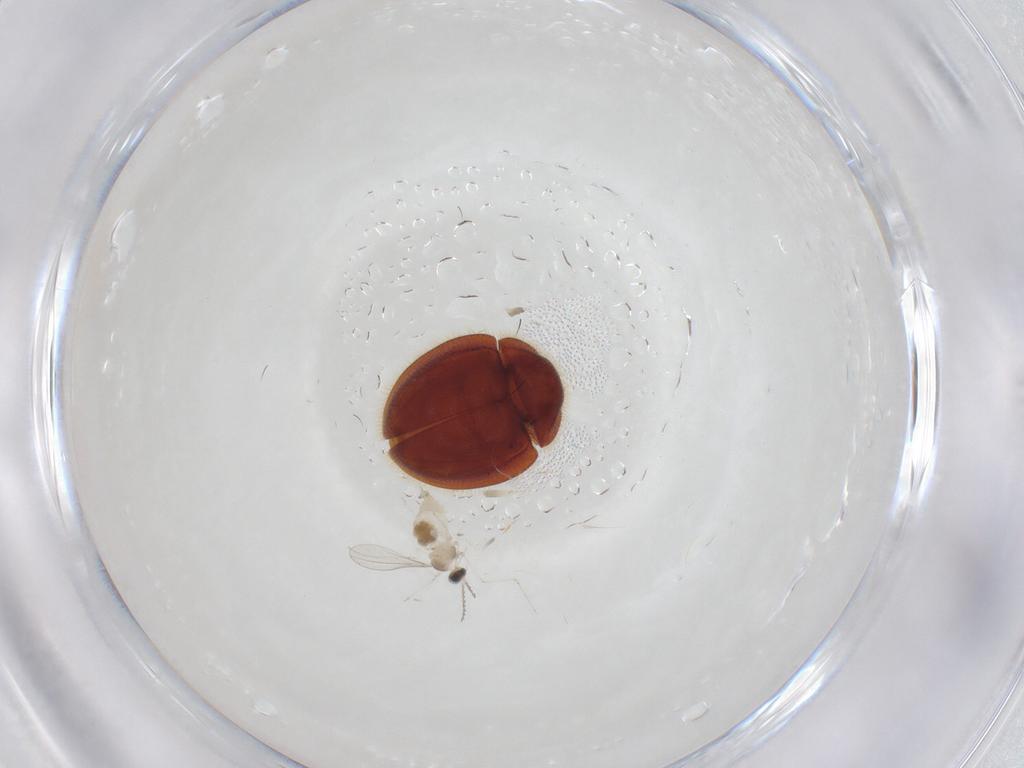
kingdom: Animalia
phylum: Arthropoda
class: Insecta
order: Diptera
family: Cecidomyiidae
